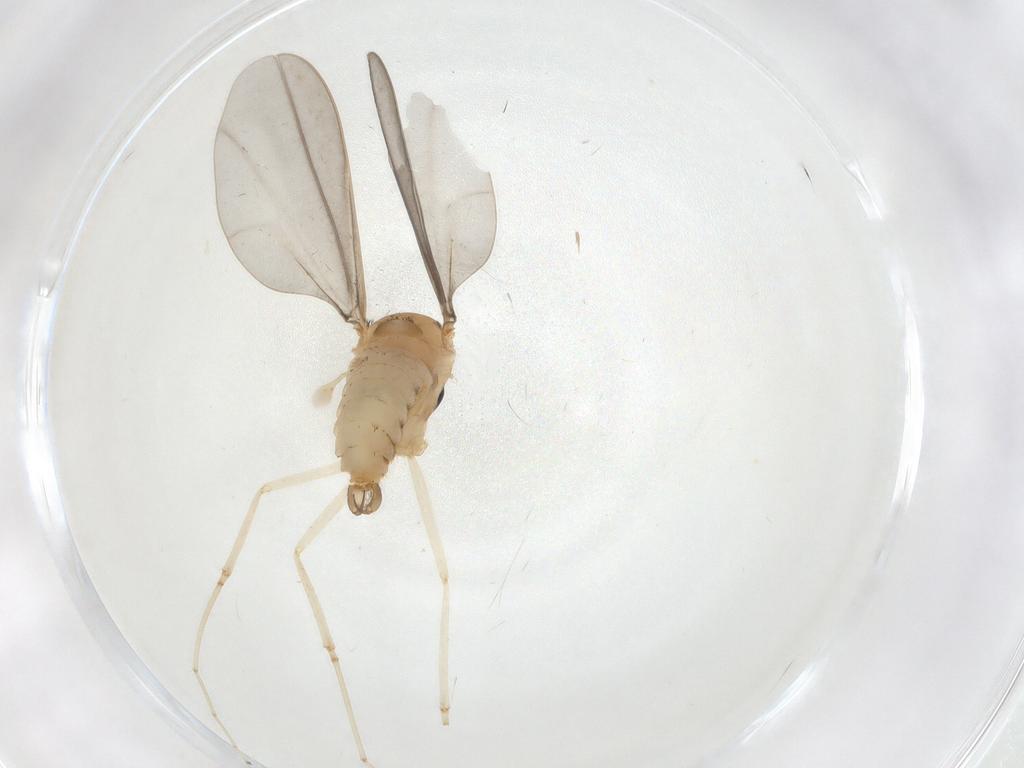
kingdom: Animalia
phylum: Arthropoda
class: Insecta
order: Diptera
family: Cecidomyiidae
